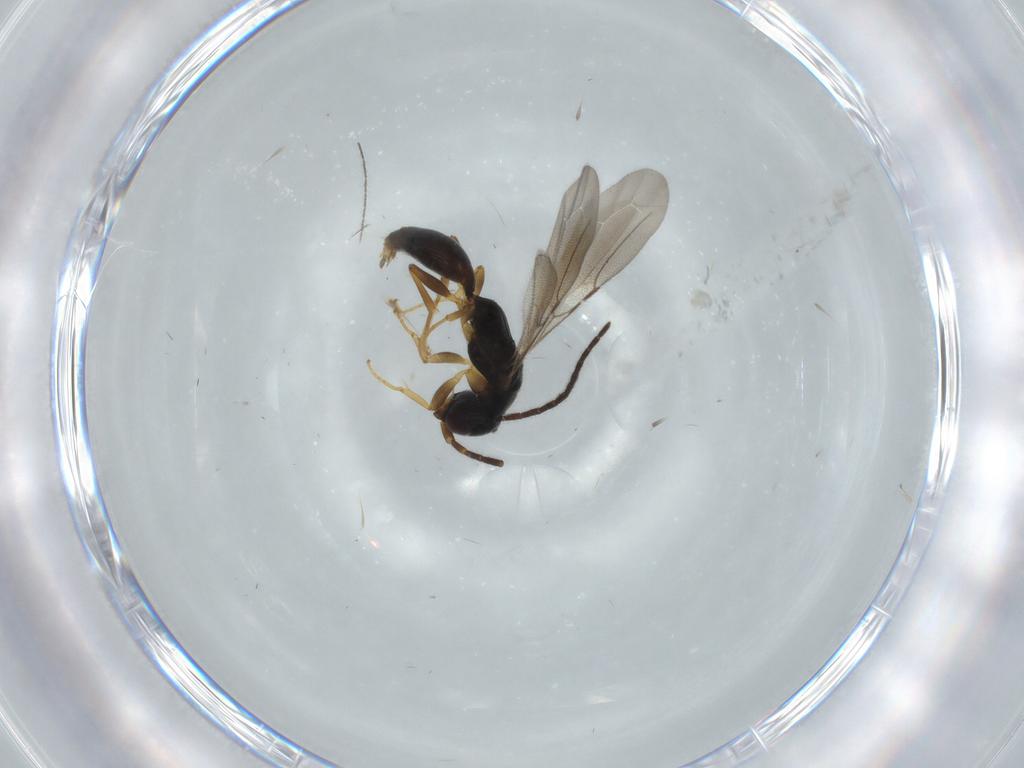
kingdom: Animalia
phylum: Arthropoda
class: Insecta
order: Hymenoptera
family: Bethylidae
